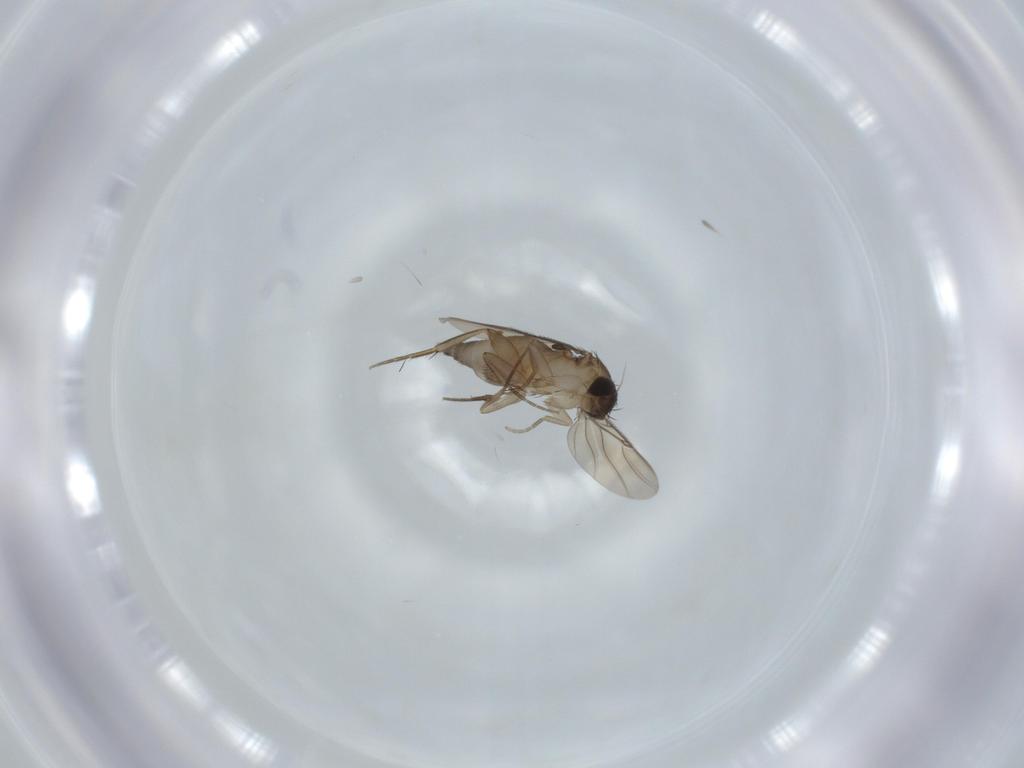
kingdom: Animalia
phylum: Arthropoda
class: Insecta
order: Diptera
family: Phoridae
